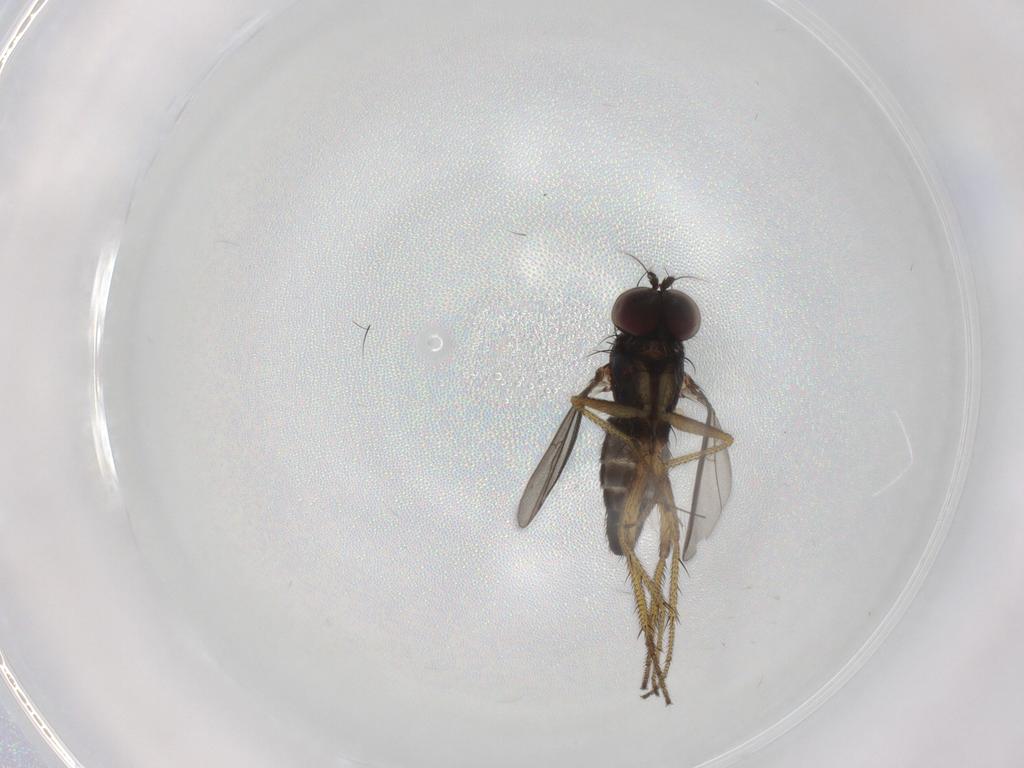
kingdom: Animalia
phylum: Arthropoda
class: Insecta
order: Diptera
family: Dolichopodidae
